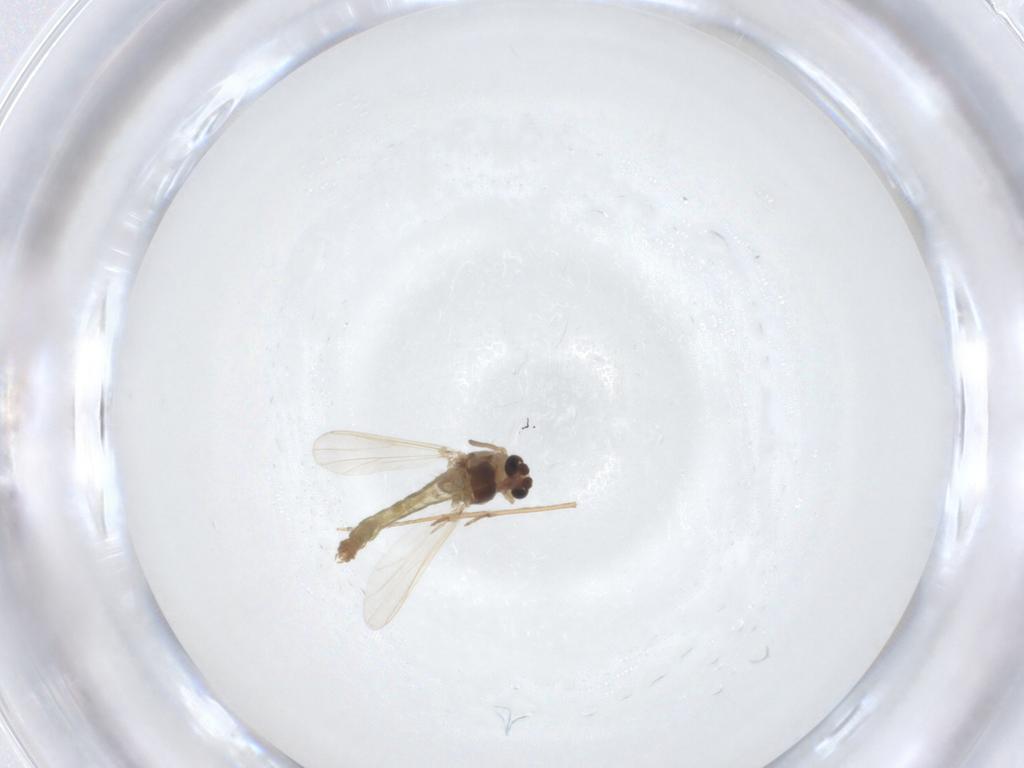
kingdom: Animalia
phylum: Arthropoda
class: Insecta
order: Diptera
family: Chironomidae
